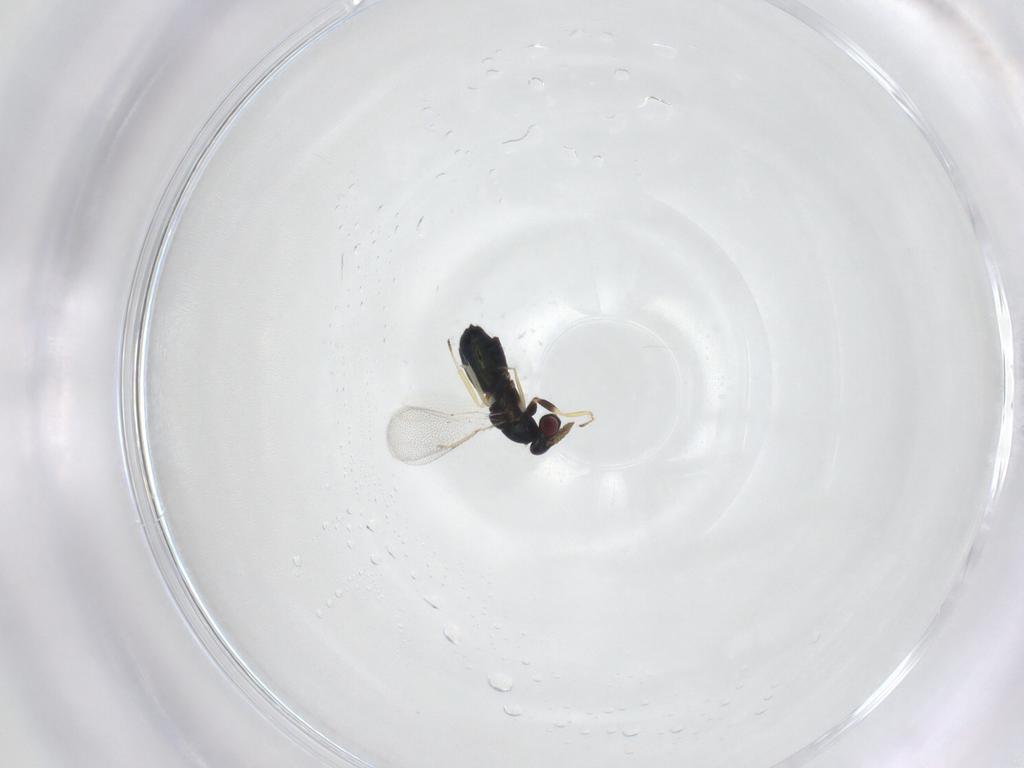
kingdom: Animalia
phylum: Arthropoda
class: Insecta
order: Hymenoptera
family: Eulophidae
